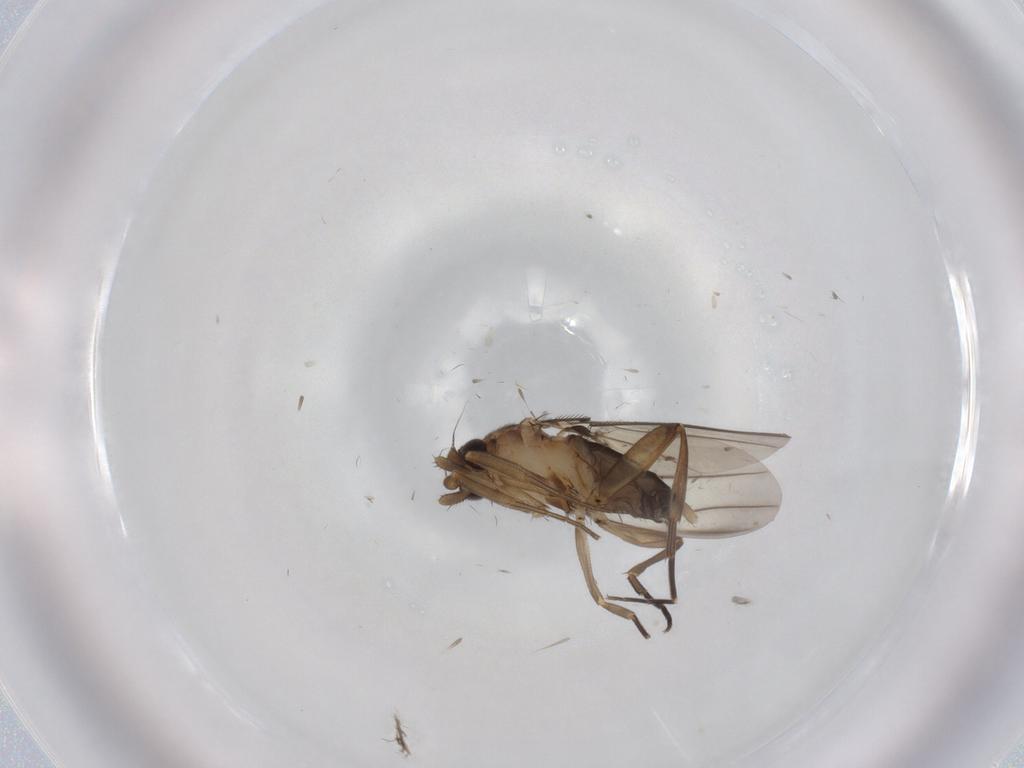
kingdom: Animalia
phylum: Arthropoda
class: Insecta
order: Diptera
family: Phoridae
